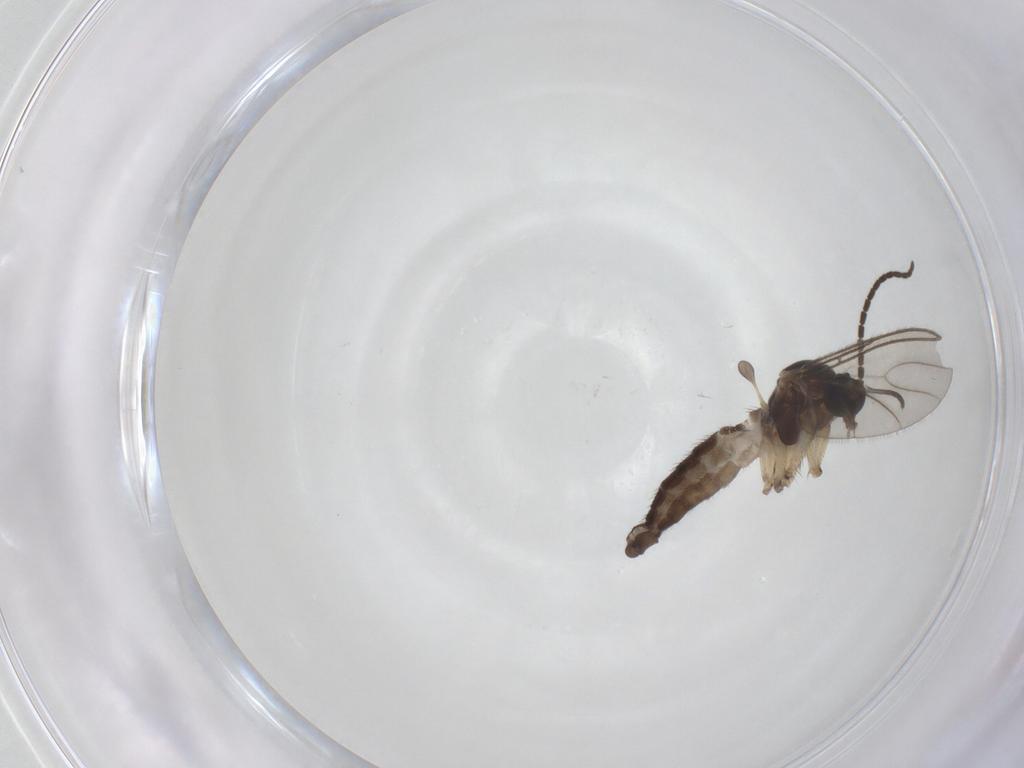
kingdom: Animalia
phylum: Arthropoda
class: Insecta
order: Diptera
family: Sciaridae
